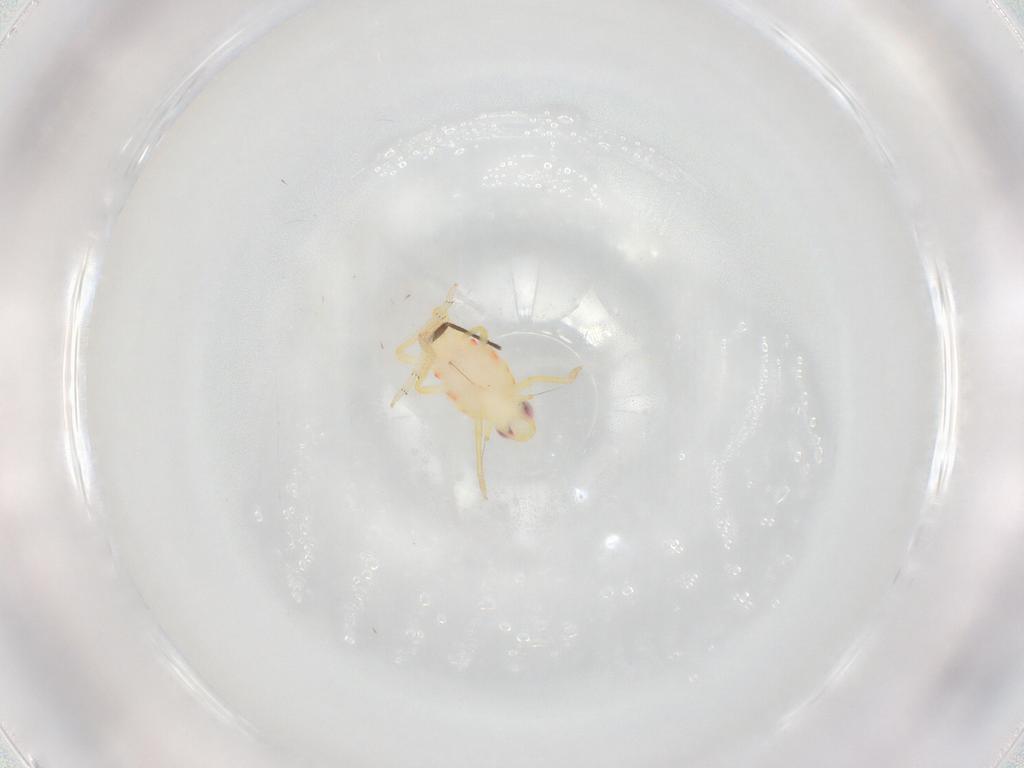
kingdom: Animalia
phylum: Arthropoda
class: Insecta
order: Hemiptera
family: Tropiduchidae
